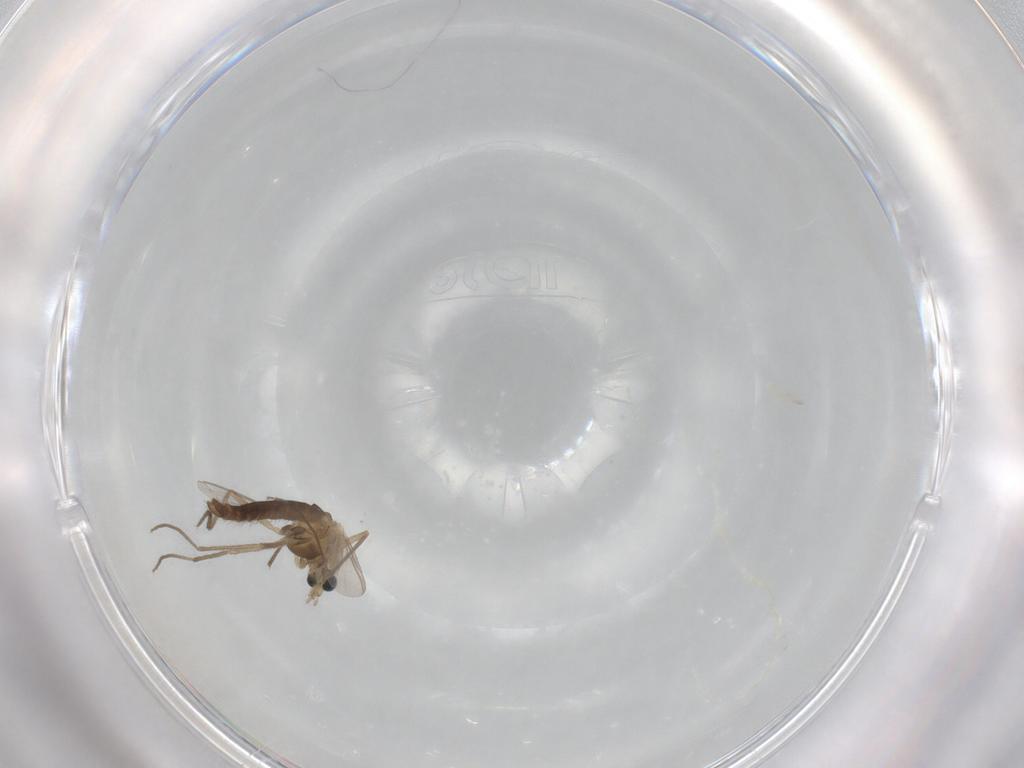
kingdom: Animalia
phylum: Arthropoda
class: Insecta
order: Diptera
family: Chironomidae
